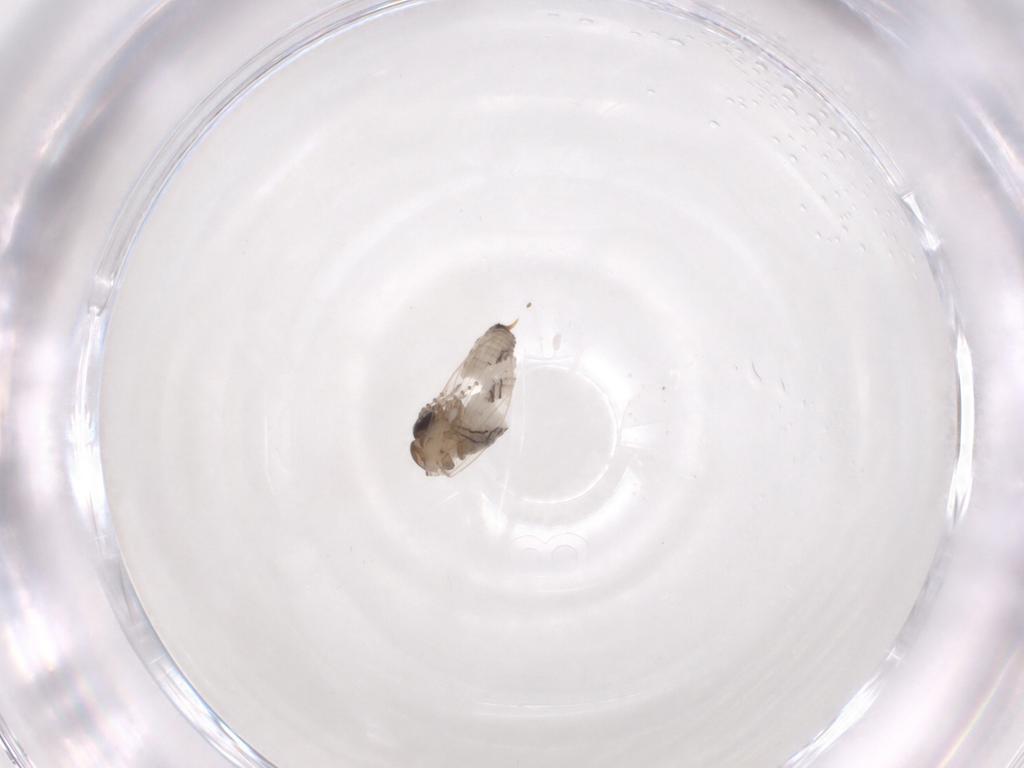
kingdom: Animalia
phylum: Arthropoda
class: Insecta
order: Diptera
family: Psychodidae
